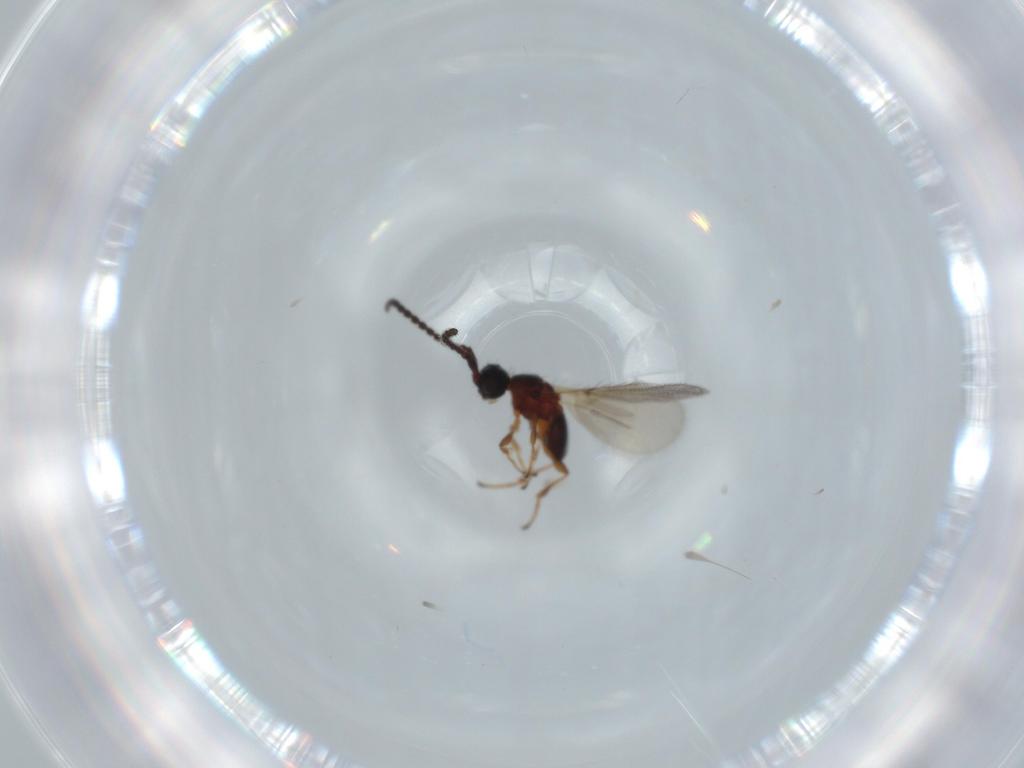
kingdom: Animalia
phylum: Arthropoda
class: Insecta
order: Hymenoptera
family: Diapriidae
